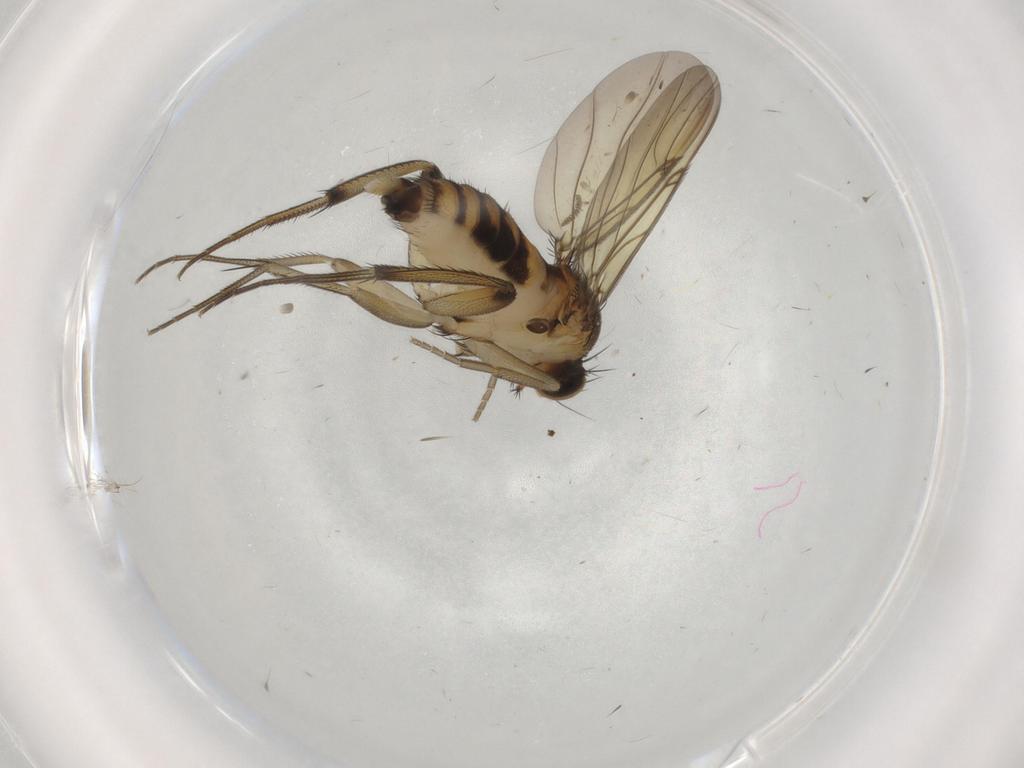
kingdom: Animalia
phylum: Arthropoda
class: Insecta
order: Diptera
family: Phoridae
